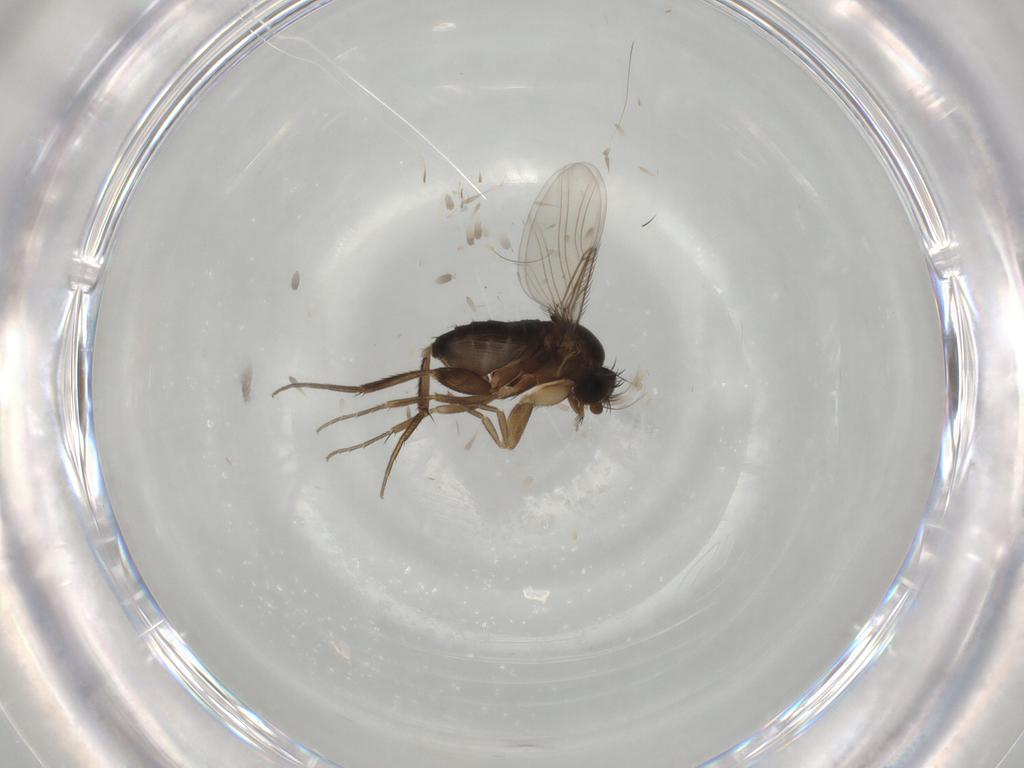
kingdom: Animalia
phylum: Arthropoda
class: Insecta
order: Diptera
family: Phoridae
